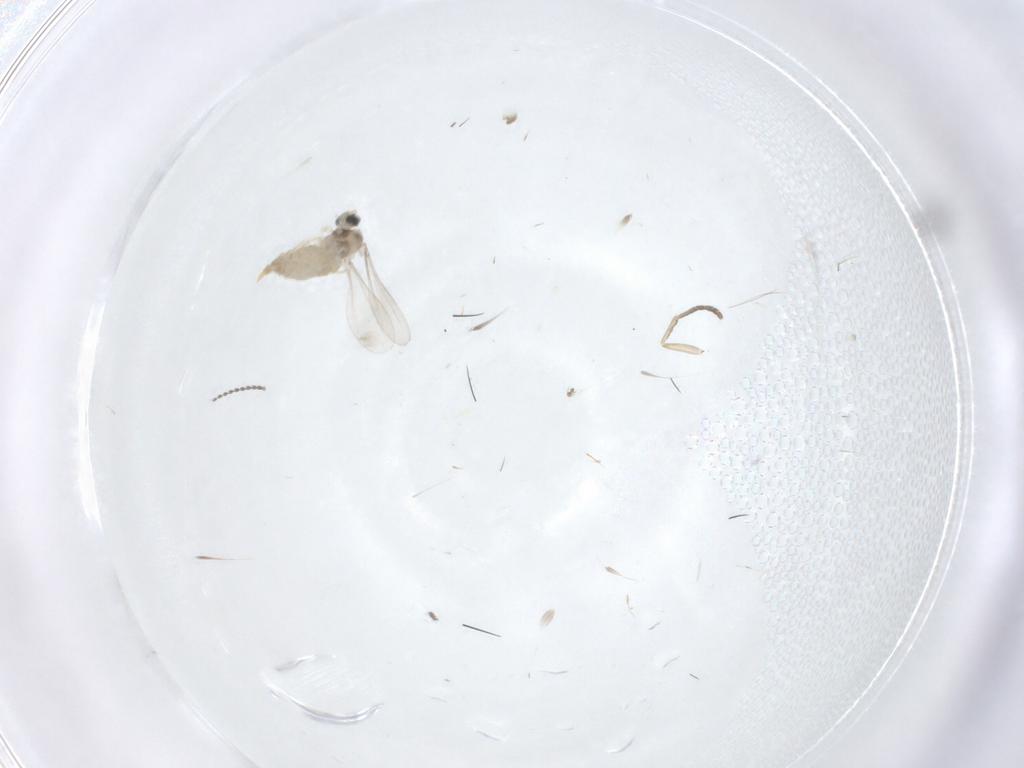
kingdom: Animalia
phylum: Arthropoda
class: Insecta
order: Diptera
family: Cecidomyiidae
